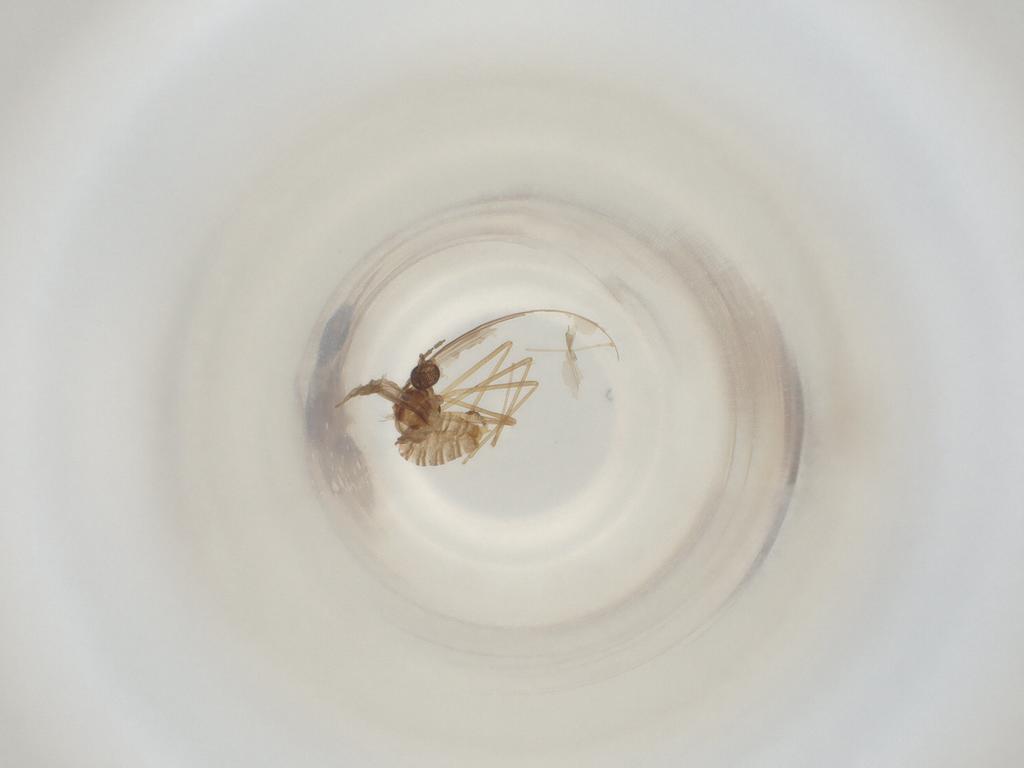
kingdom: Animalia
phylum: Arthropoda
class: Insecta
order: Diptera
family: Cecidomyiidae
